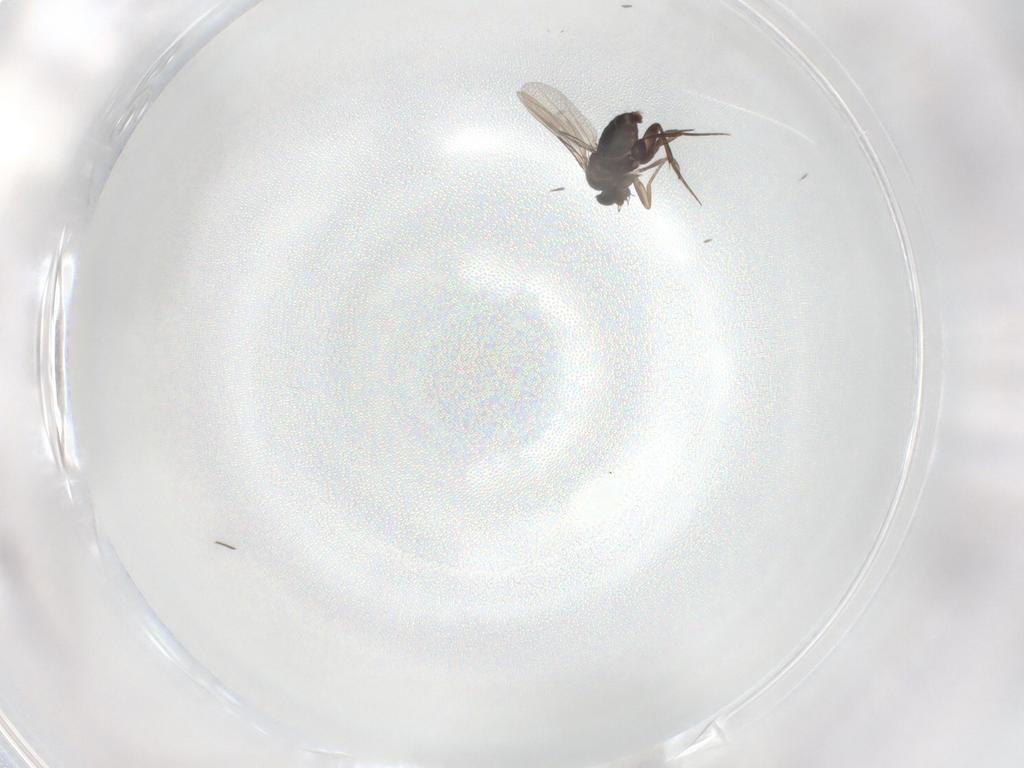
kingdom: Animalia
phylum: Arthropoda
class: Insecta
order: Diptera
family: Phoridae
